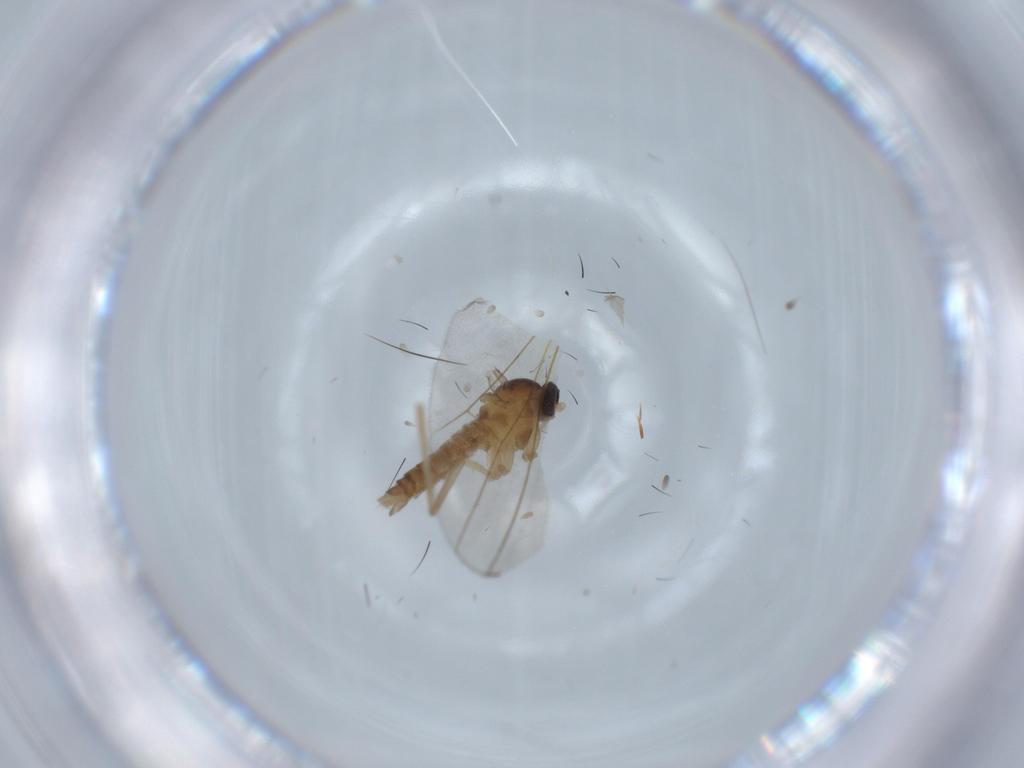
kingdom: Animalia
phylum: Arthropoda
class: Insecta
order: Diptera
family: Cecidomyiidae
